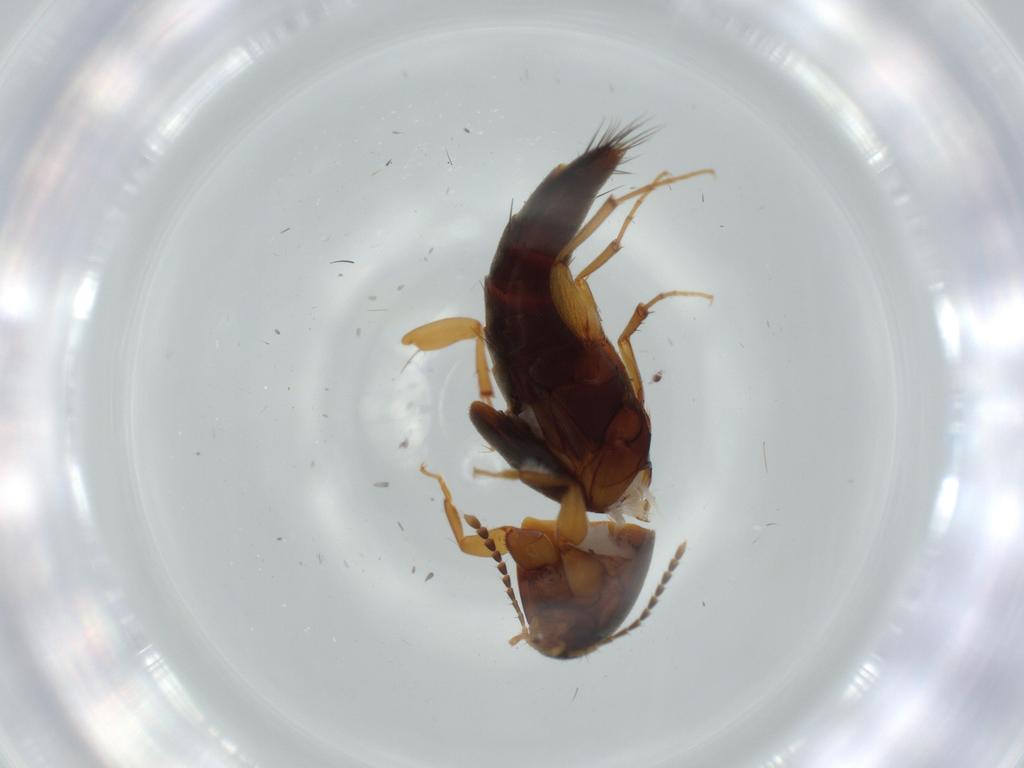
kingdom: Animalia
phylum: Arthropoda
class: Insecta
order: Coleoptera
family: Staphylinidae
